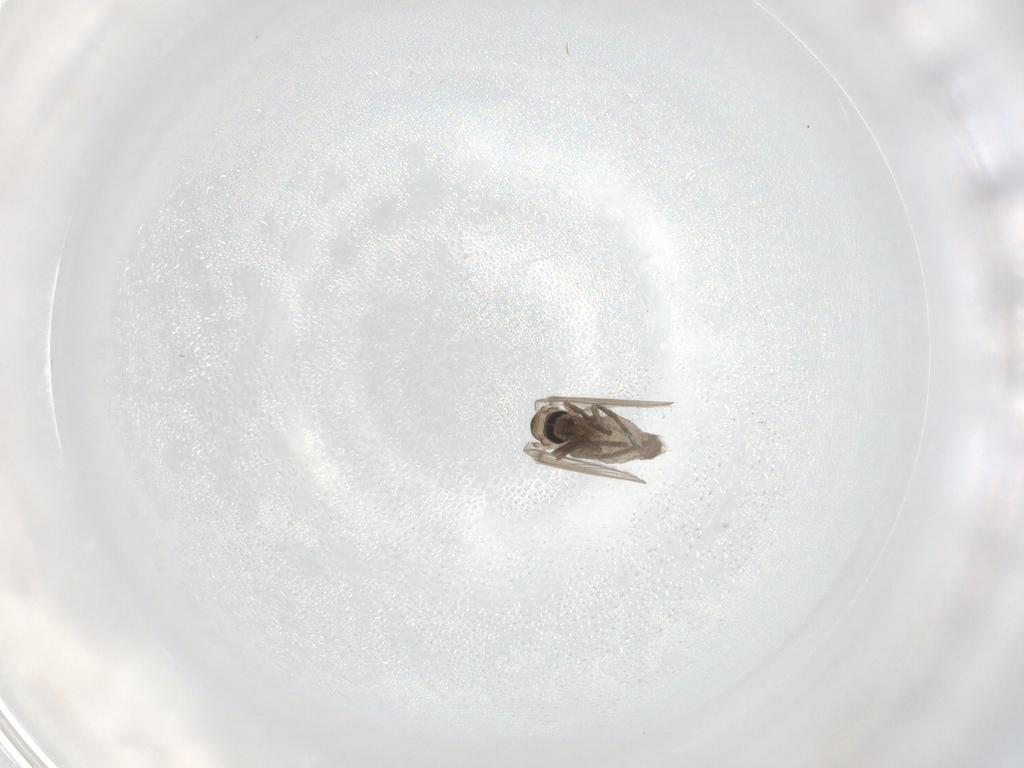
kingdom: Animalia
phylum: Arthropoda
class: Insecta
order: Diptera
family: Psychodidae
